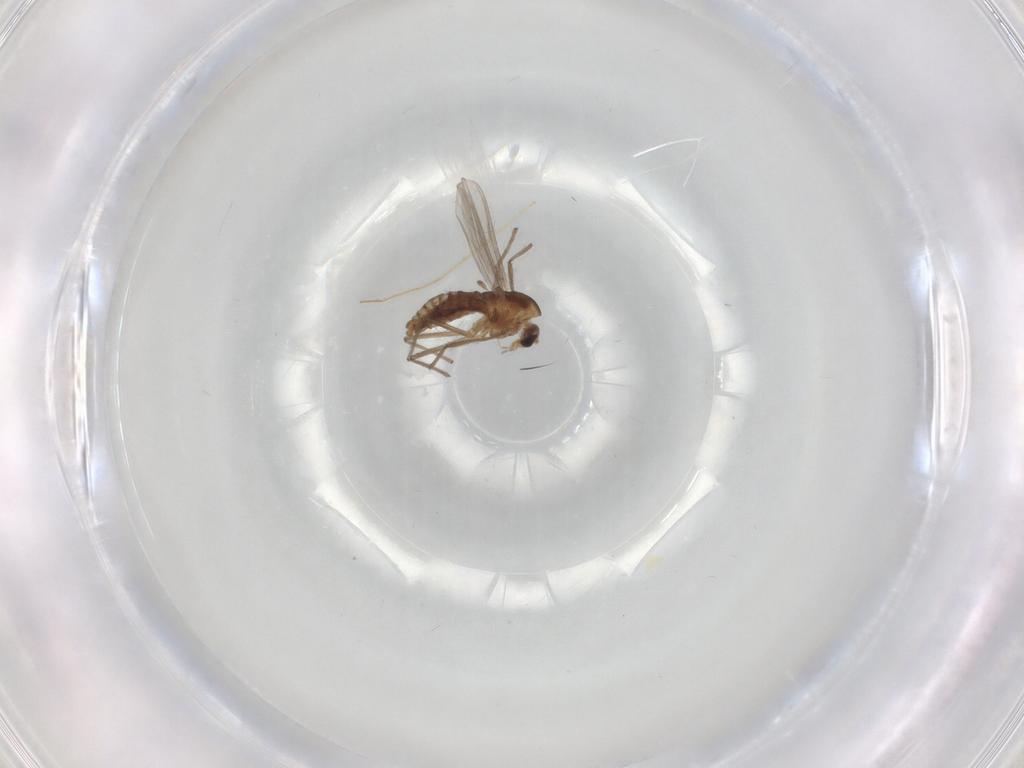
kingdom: Animalia
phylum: Arthropoda
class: Insecta
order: Diptera
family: Chironomidae
